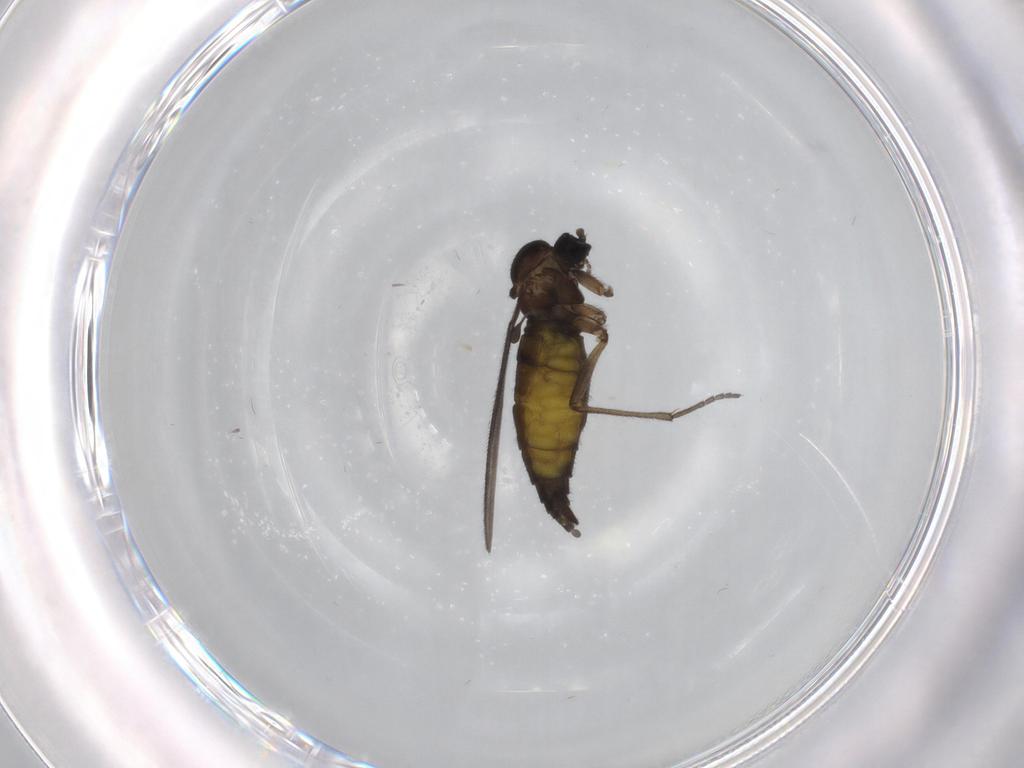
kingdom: Animalia
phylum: Arthropoda
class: Insecta
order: Diptera
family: Sciaridae
